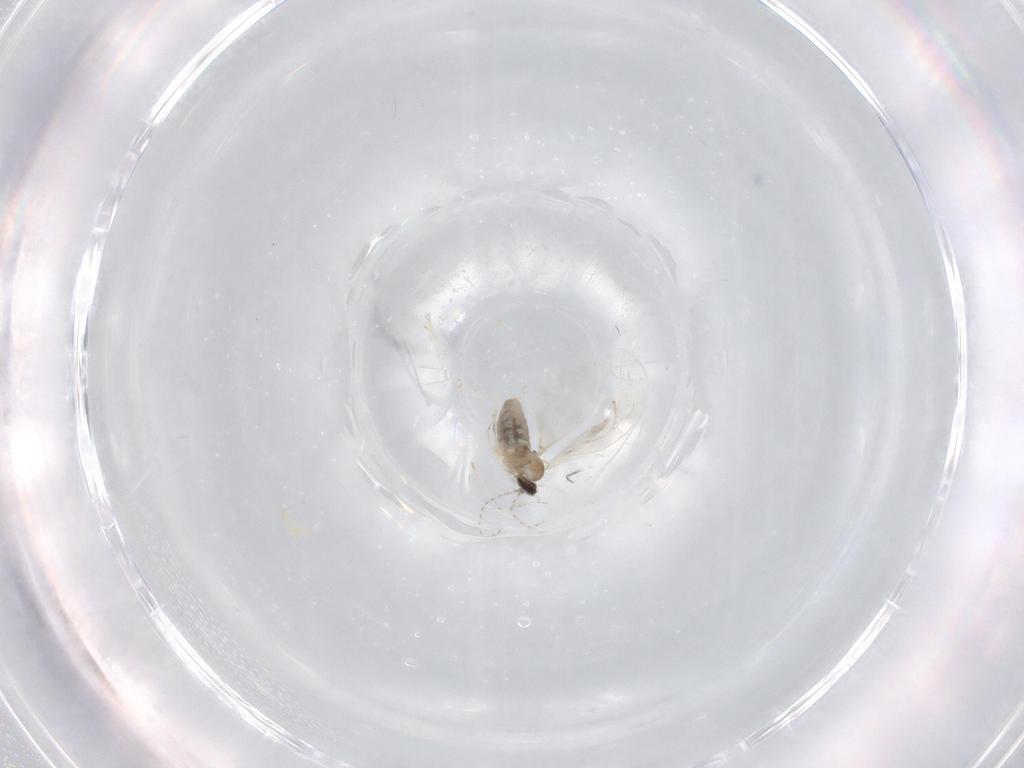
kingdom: Animalia
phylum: Arthropoda
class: Insecta
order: Diptera
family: Cecidomyiidae
